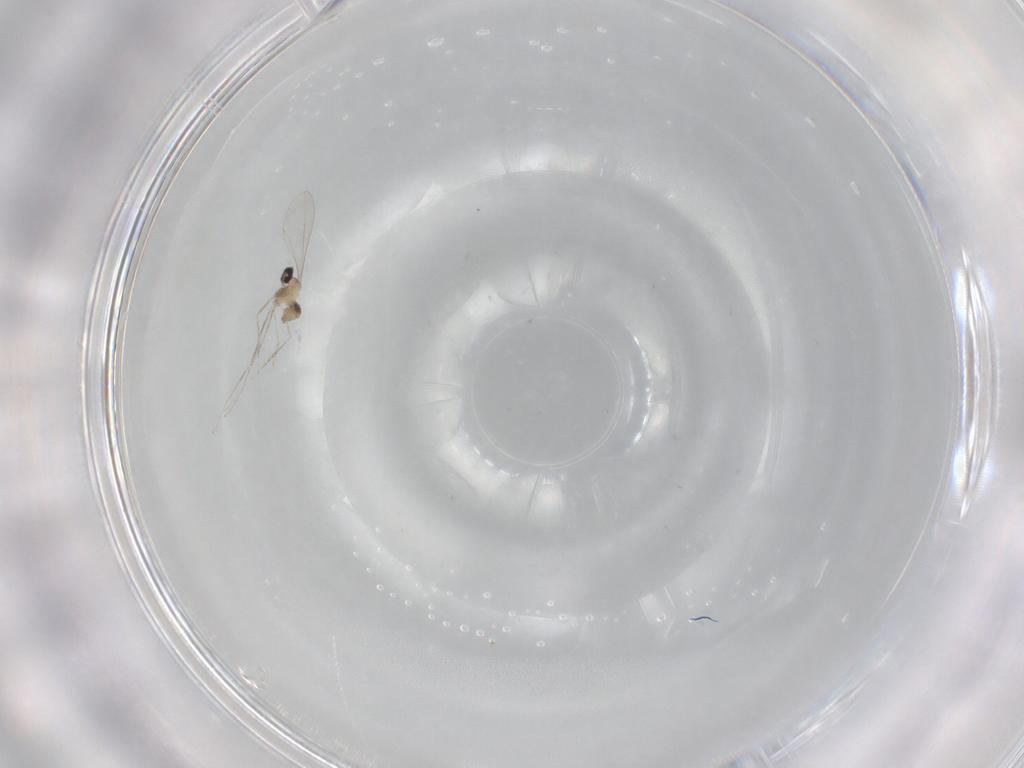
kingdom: Animalia
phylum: Arthropoda
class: Insecta
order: Diptera
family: Cecidomyiidae
